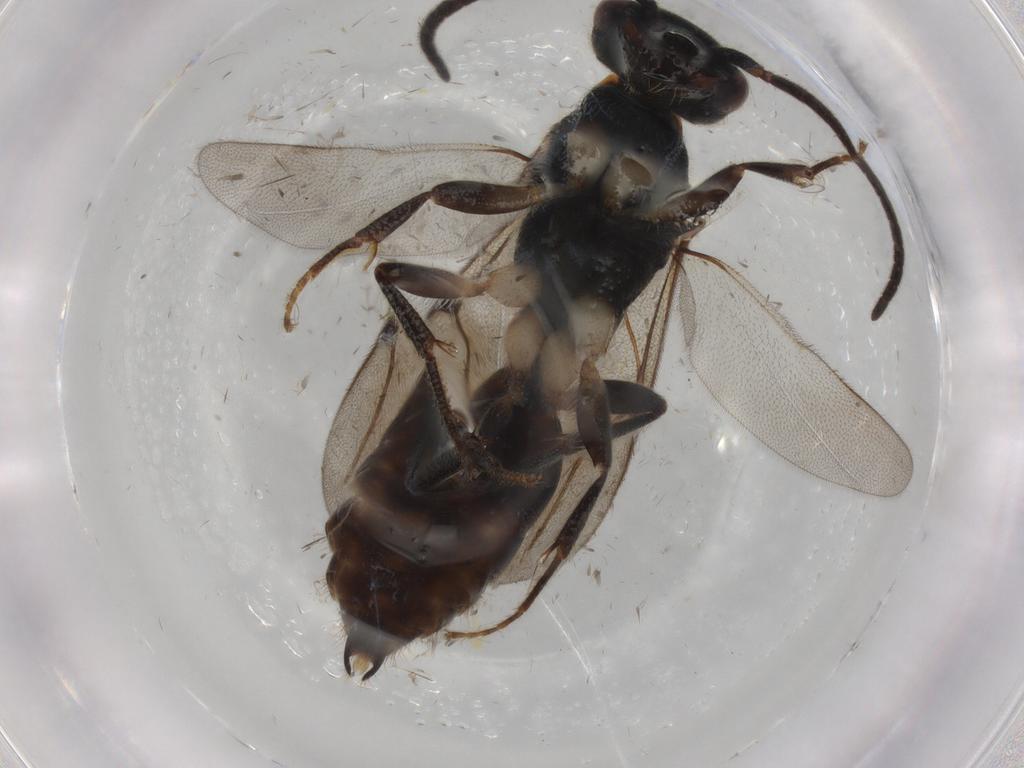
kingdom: Animalia
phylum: Arthropoda
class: Insecta
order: Hymenoptera
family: Bethylidae
